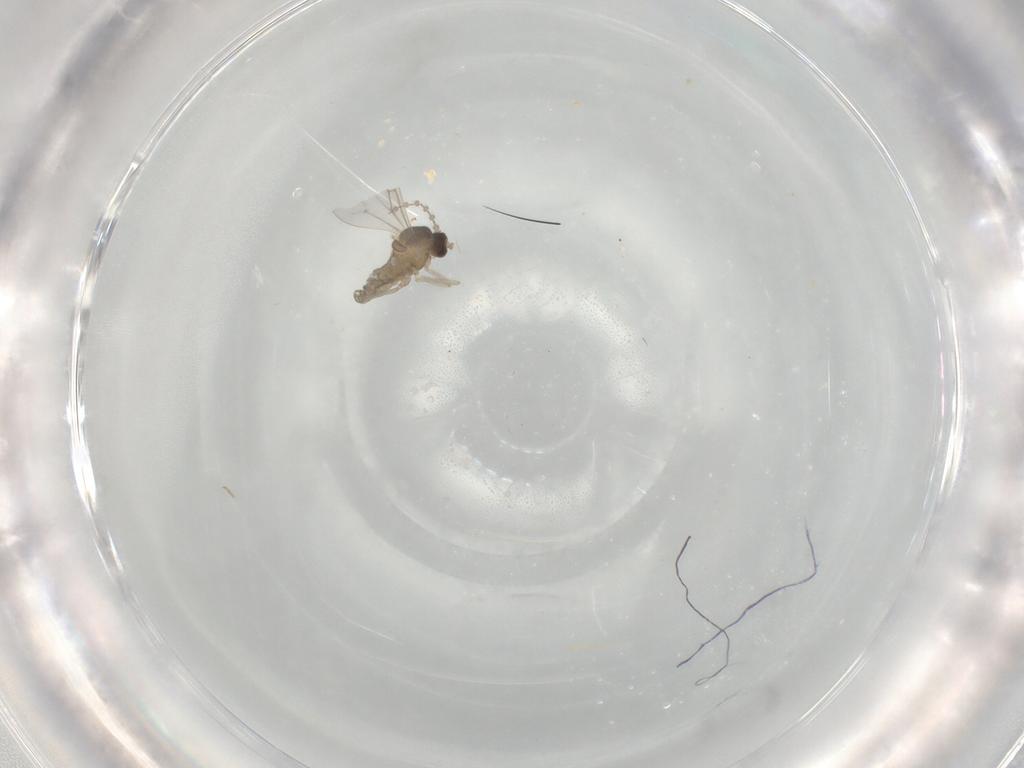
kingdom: Animalia
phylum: Arthropoda
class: Insecta
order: Diptera
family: Cecidomyiidae
